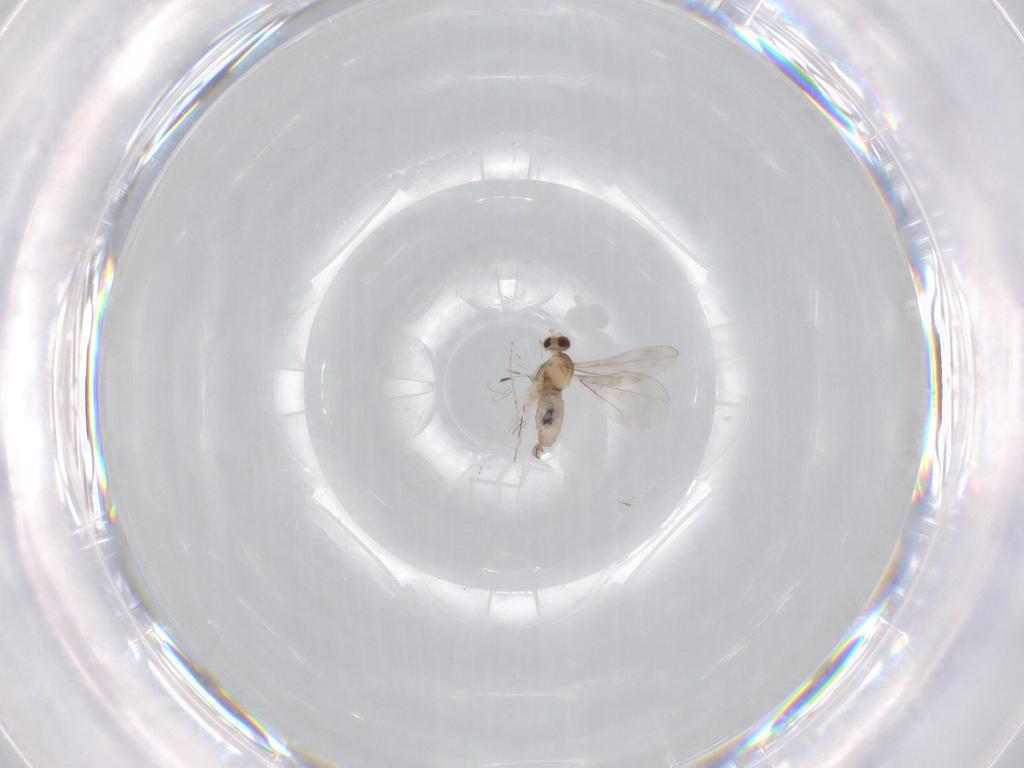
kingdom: Animalia
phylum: Arthropoda
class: Insecta
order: Diptera
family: Cecidomyiidae
